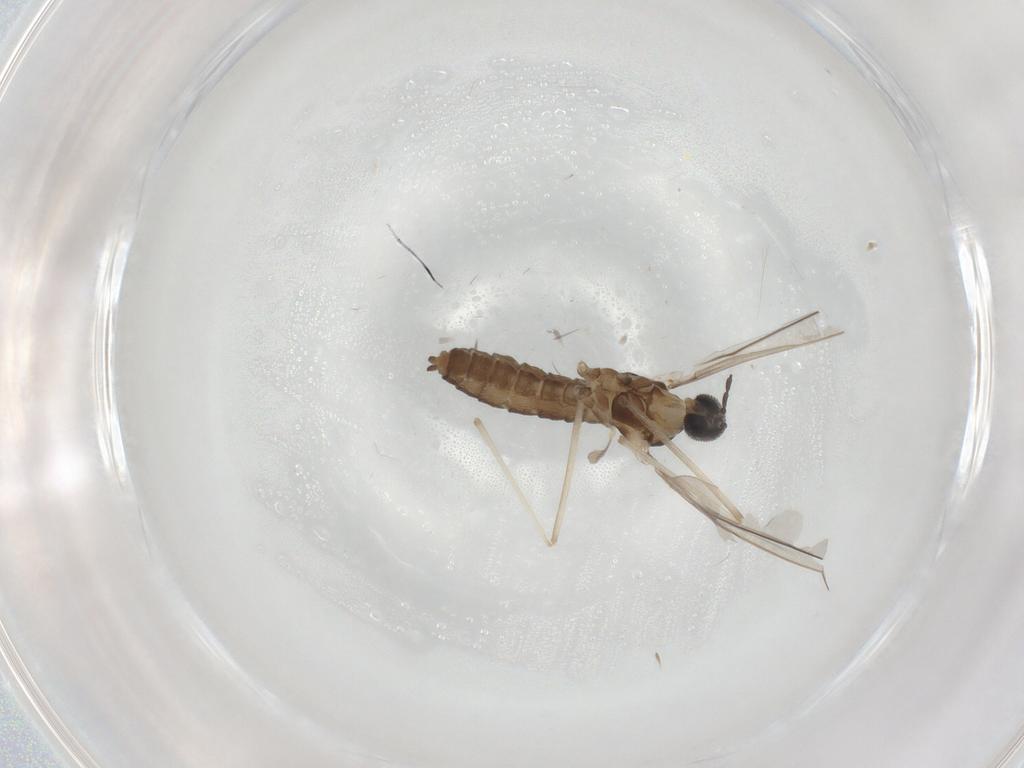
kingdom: Animalia
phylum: Arthropoda
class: Insecta
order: Diptera
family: Cecidomyiidae
